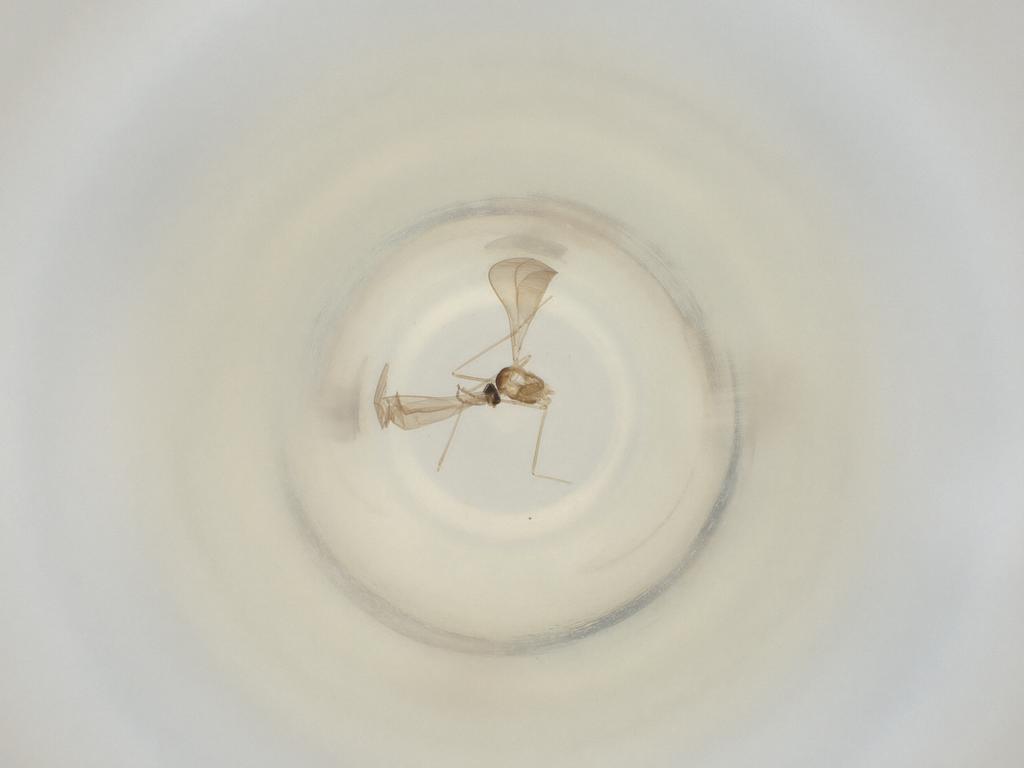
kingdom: Animalia
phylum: Arthropoda
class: Insecta
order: Diptera
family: Cecidomyiidae
